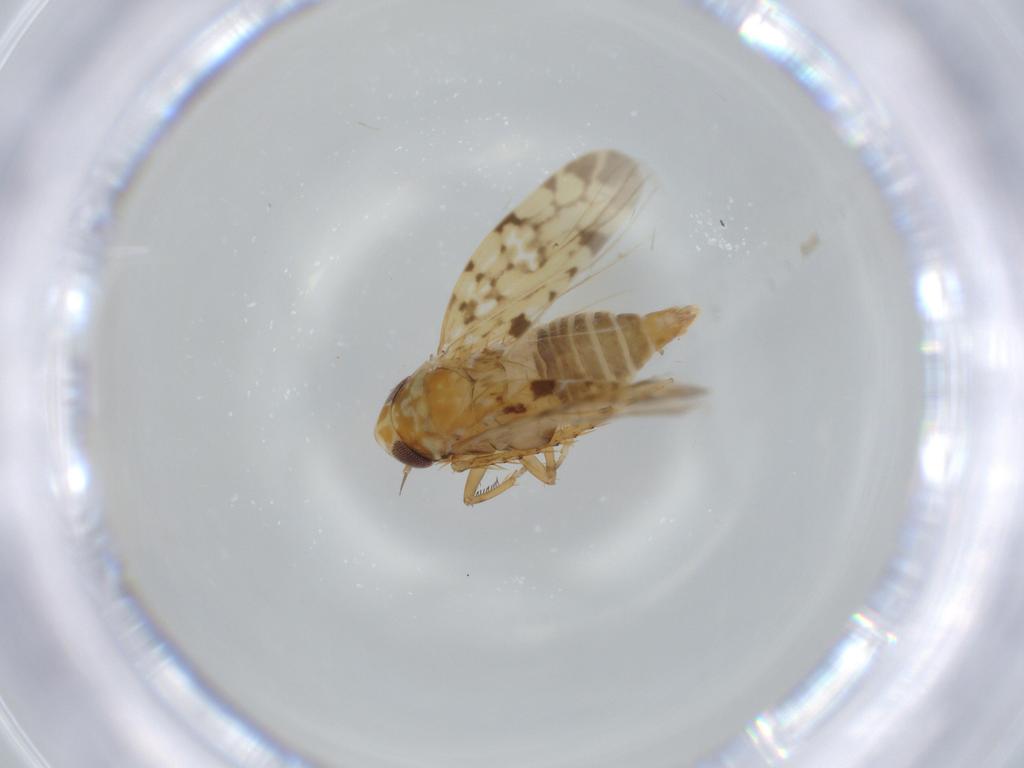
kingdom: Animalia
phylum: Arthropoda
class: Insecta
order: Hemiptera
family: Cicadellidae
